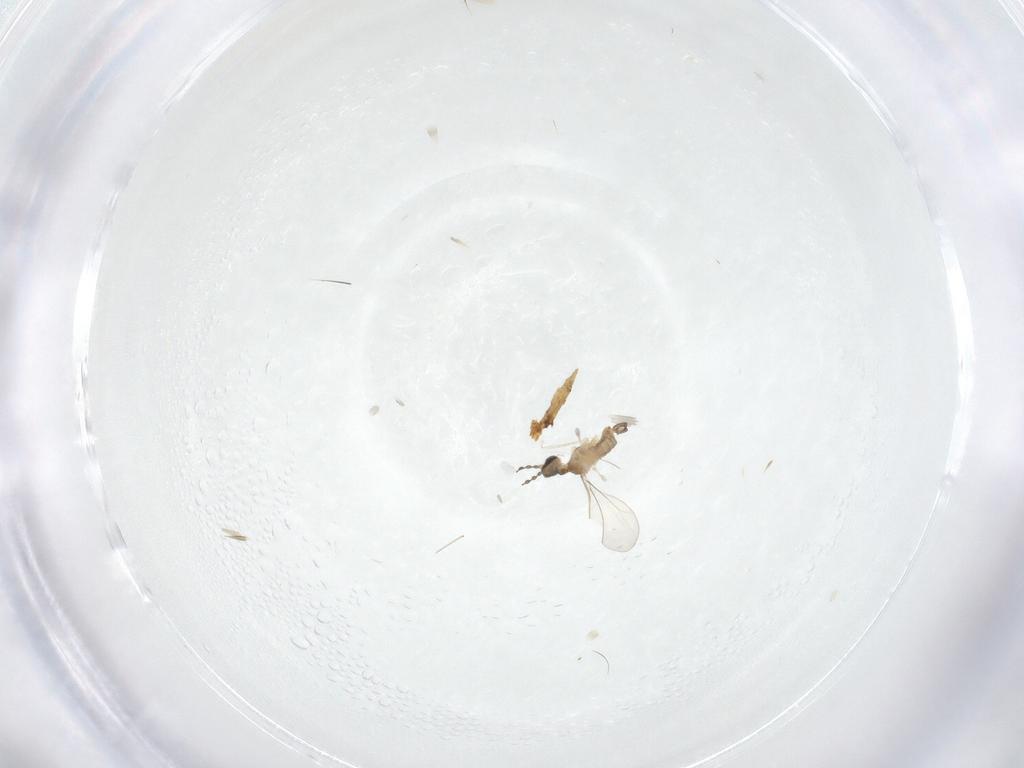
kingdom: Animalia
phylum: Arthropoda
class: Insecta
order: Diptera
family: Cecidomyiidae
